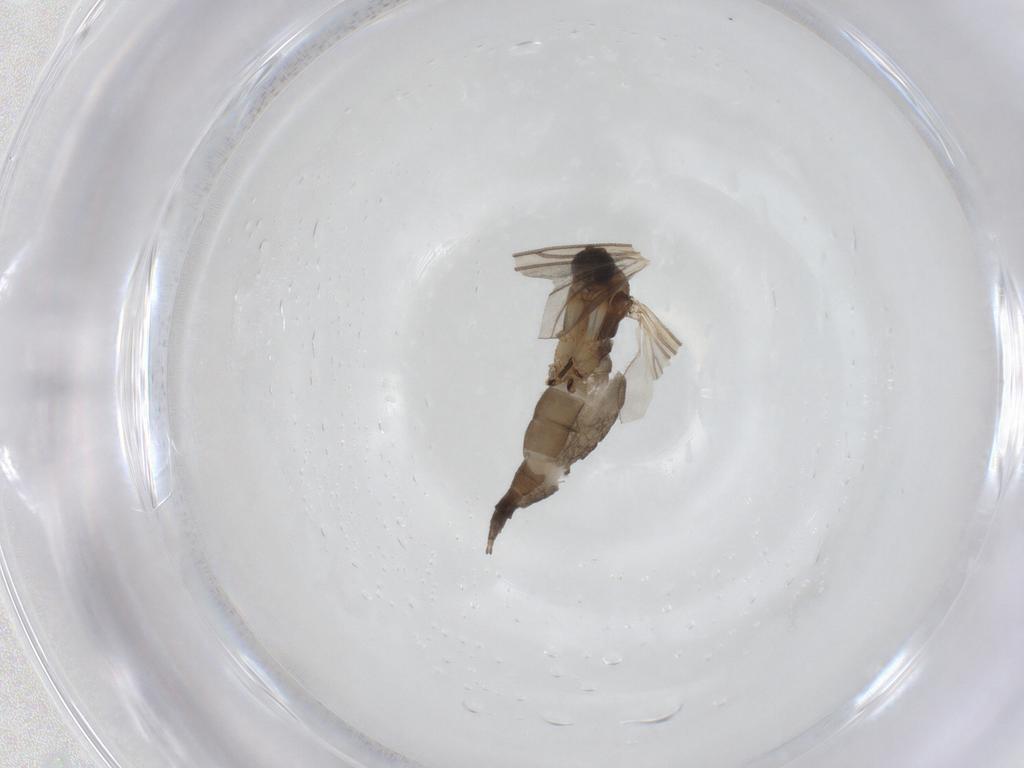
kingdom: Animalia
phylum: Arthropoda
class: Insecta
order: Diptera
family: Sciaridae
